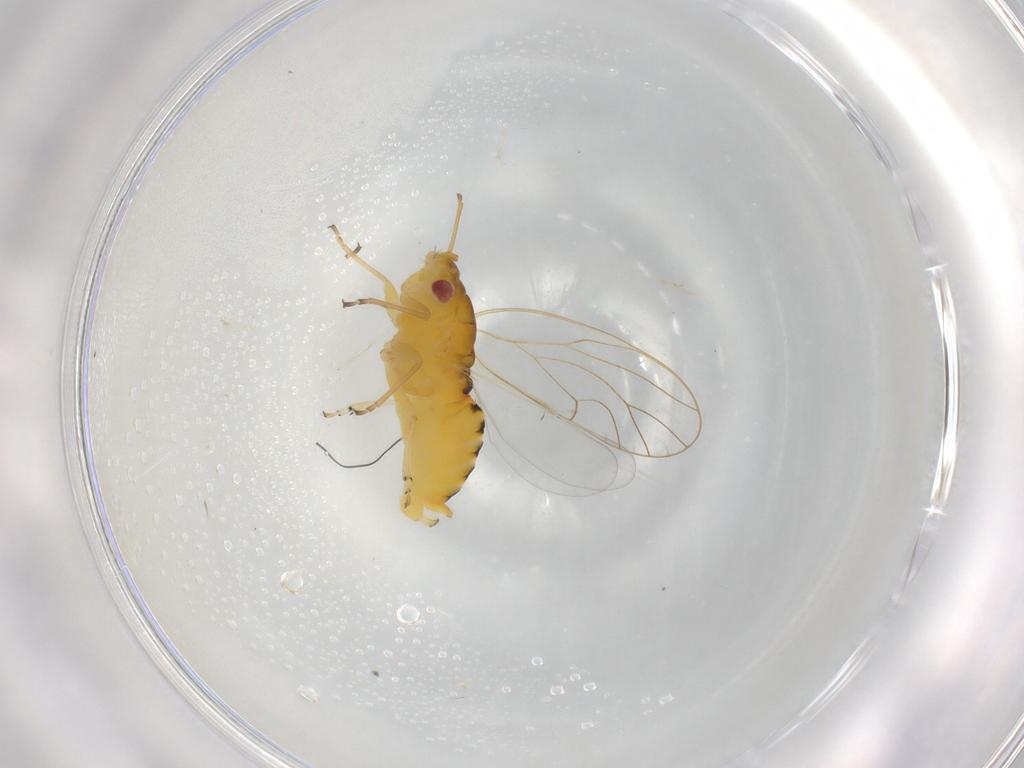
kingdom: Animalia
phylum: Arthropoda
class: Insecta
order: Hemiptera
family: Psyllidae
